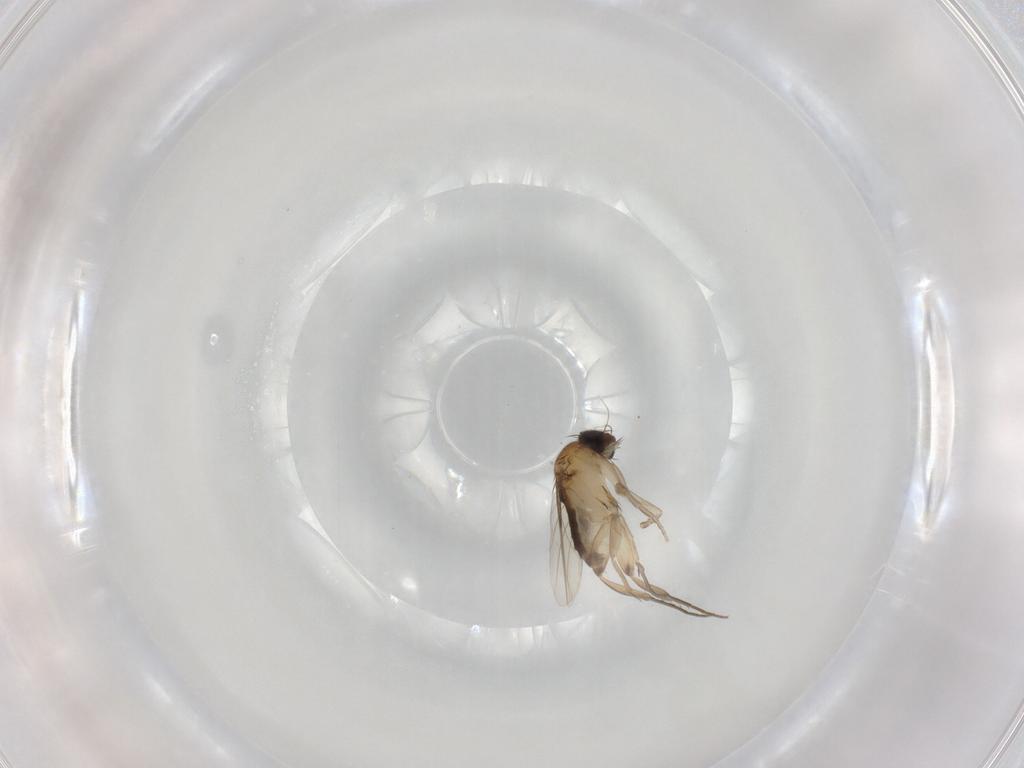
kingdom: Animalia
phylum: Arthropoda
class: Insecta
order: Diptera
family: Phoridae
